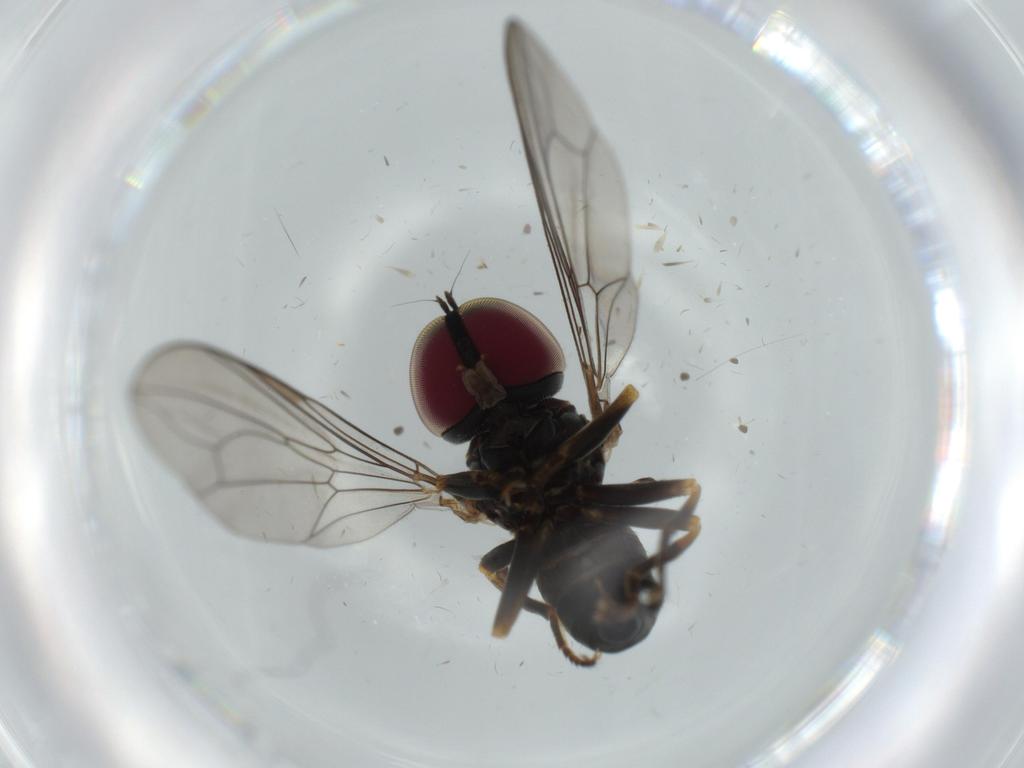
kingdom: Animalia
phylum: Arthropoda
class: Insecta
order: Diptera
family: Pipunculidae
